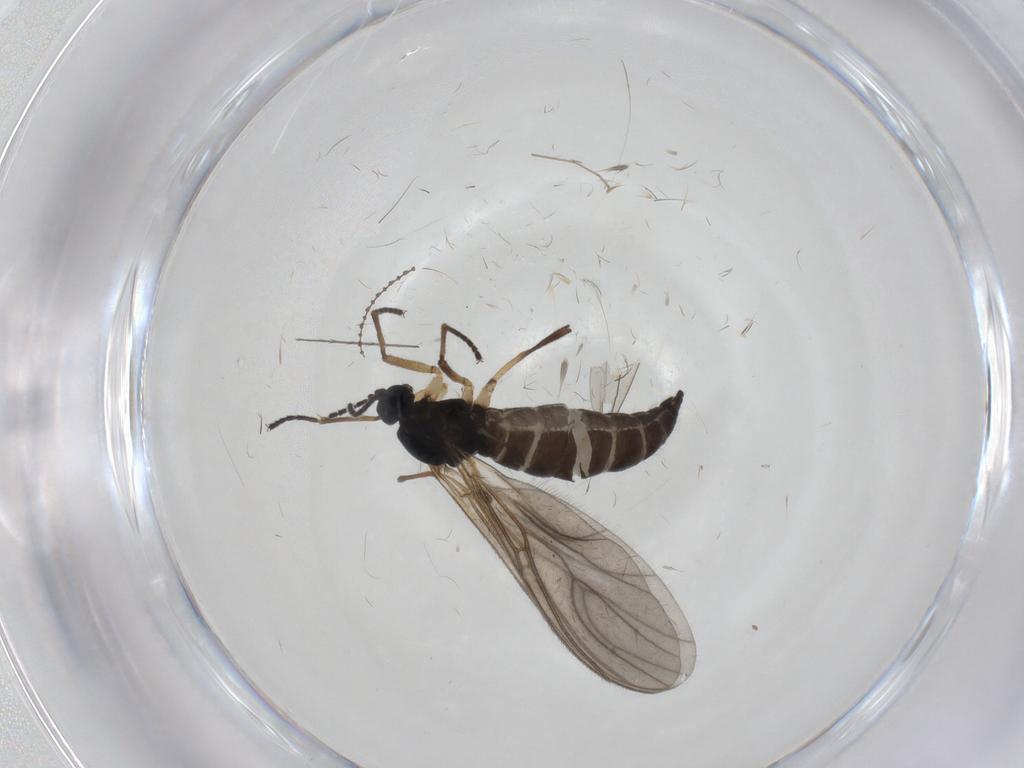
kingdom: Animalia
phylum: Arthropoda
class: Insecta
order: Diptera
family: Sciaridae
